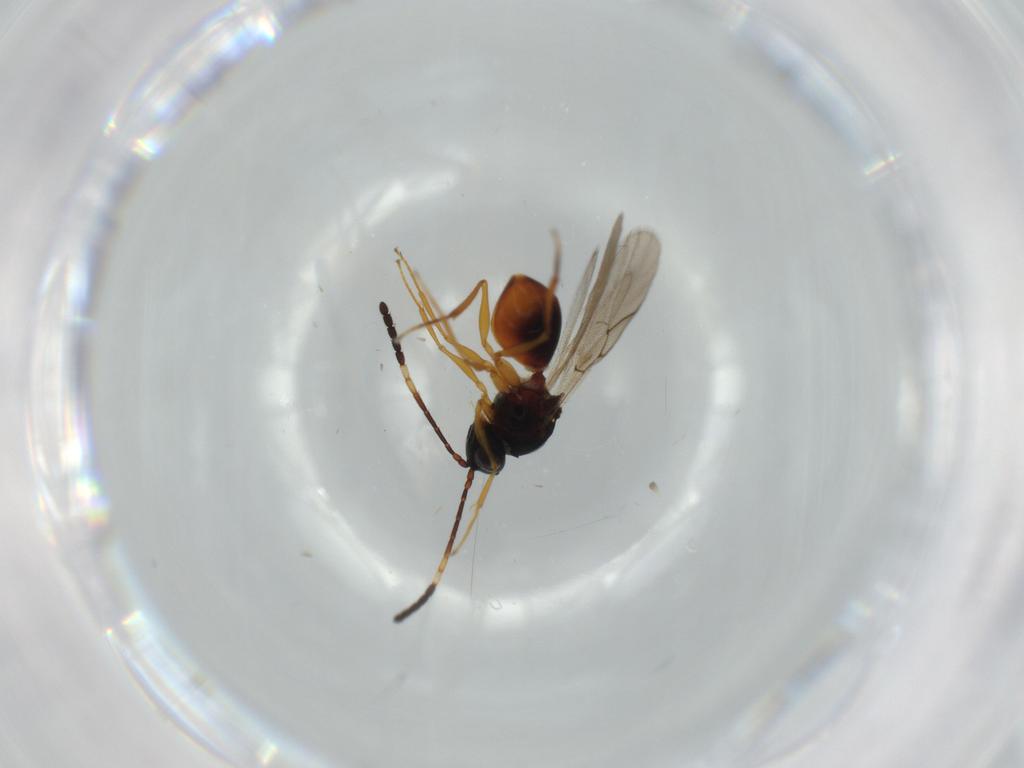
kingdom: Animalia
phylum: Arthropoda
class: Insecta
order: Hymenoptera
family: Figitidae
